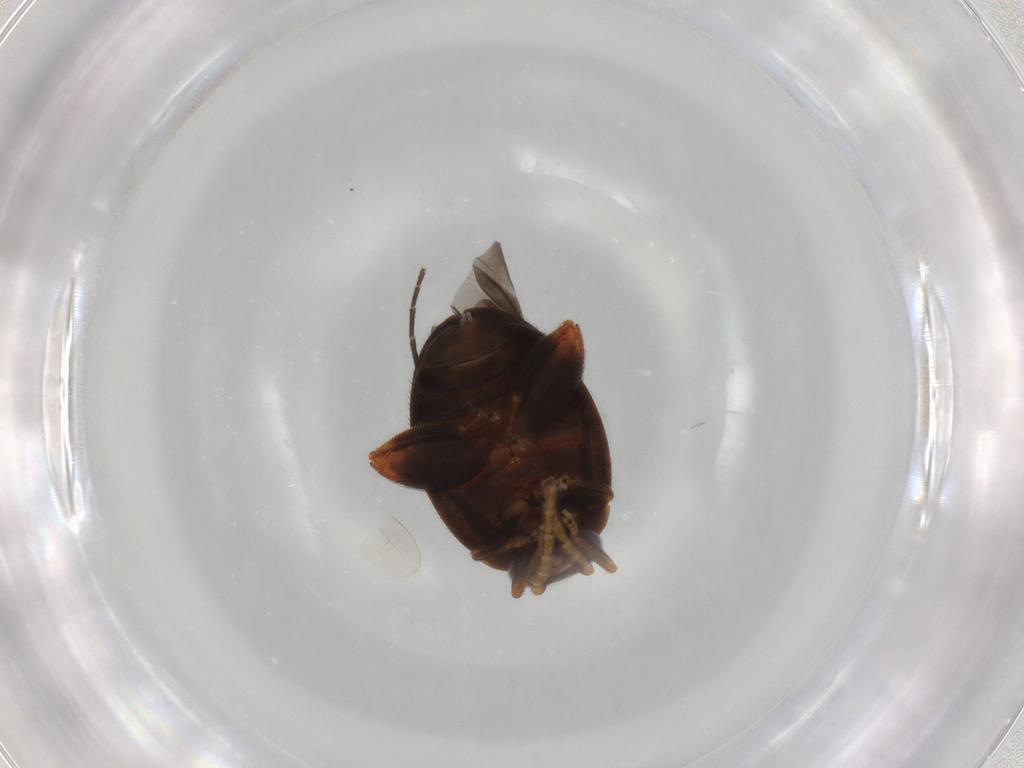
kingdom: Animalia
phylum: Arthropoda
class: Insecta
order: Coleoptera
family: Scirtidae
